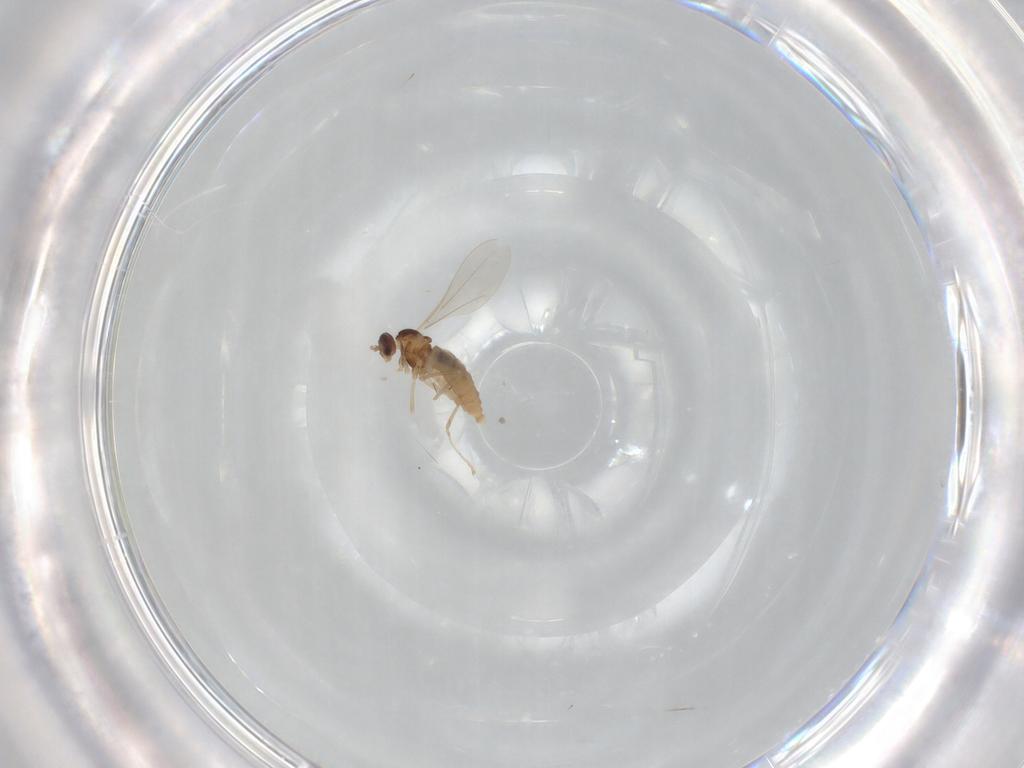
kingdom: Animalia
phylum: Arthropoda
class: Insecta
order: Diptera
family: Cecidomyiidae
